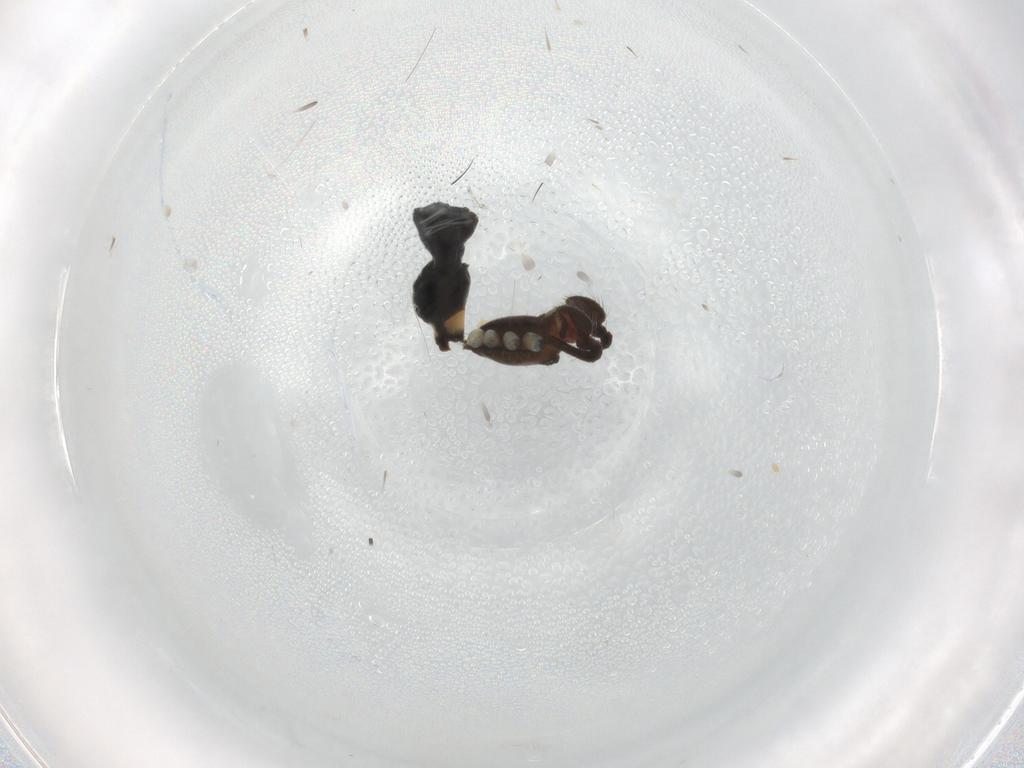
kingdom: Animalia
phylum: Arthropoda
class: Arachnida
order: Araneae
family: Theridiidae
